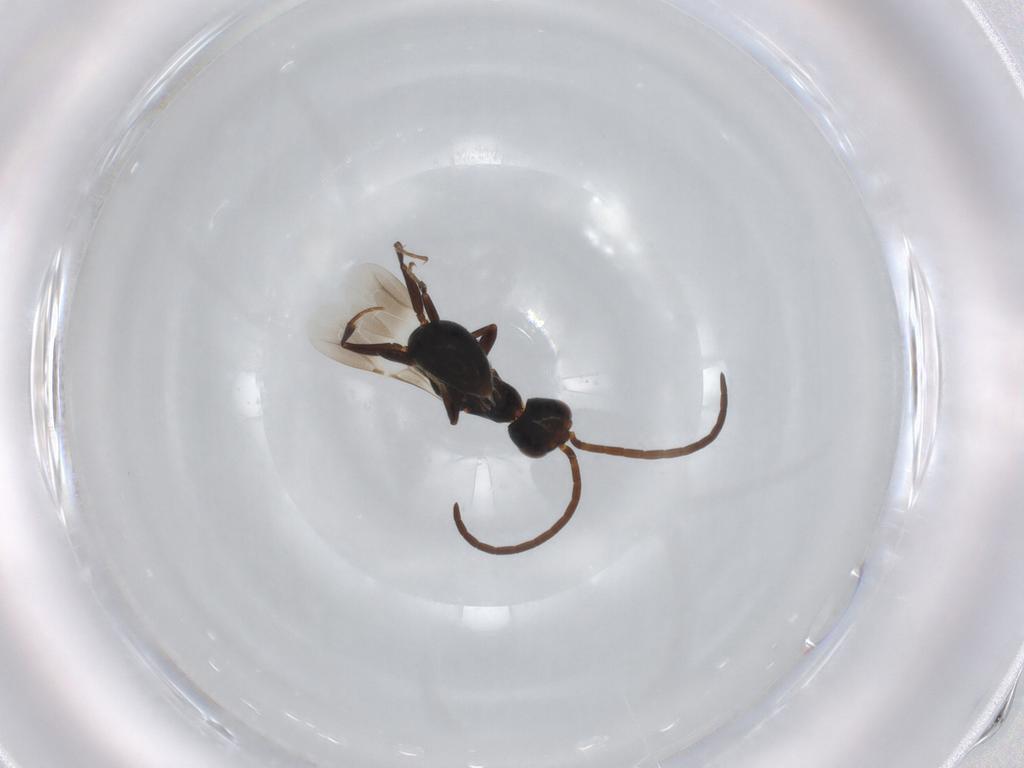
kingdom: Animalia
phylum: Arthropoda
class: Insecta
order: Hymenoptera
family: Bethylidae
